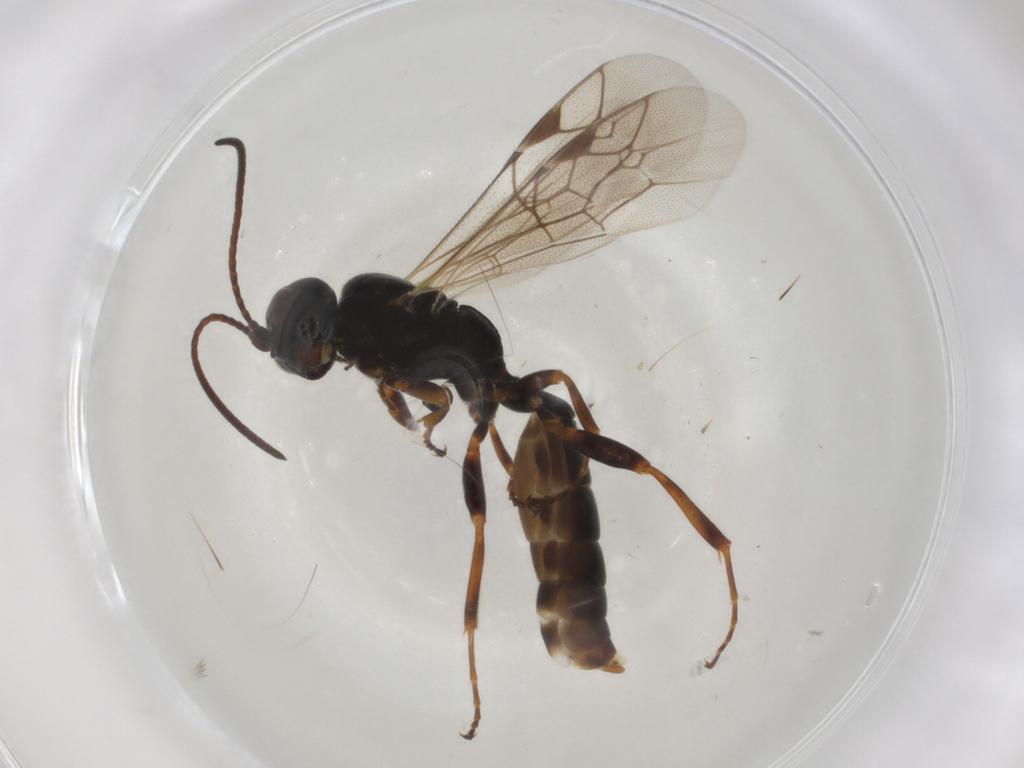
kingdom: Animalia
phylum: Arthropoda
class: Insecta
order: Hymenoptera
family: Ichneumonidae
